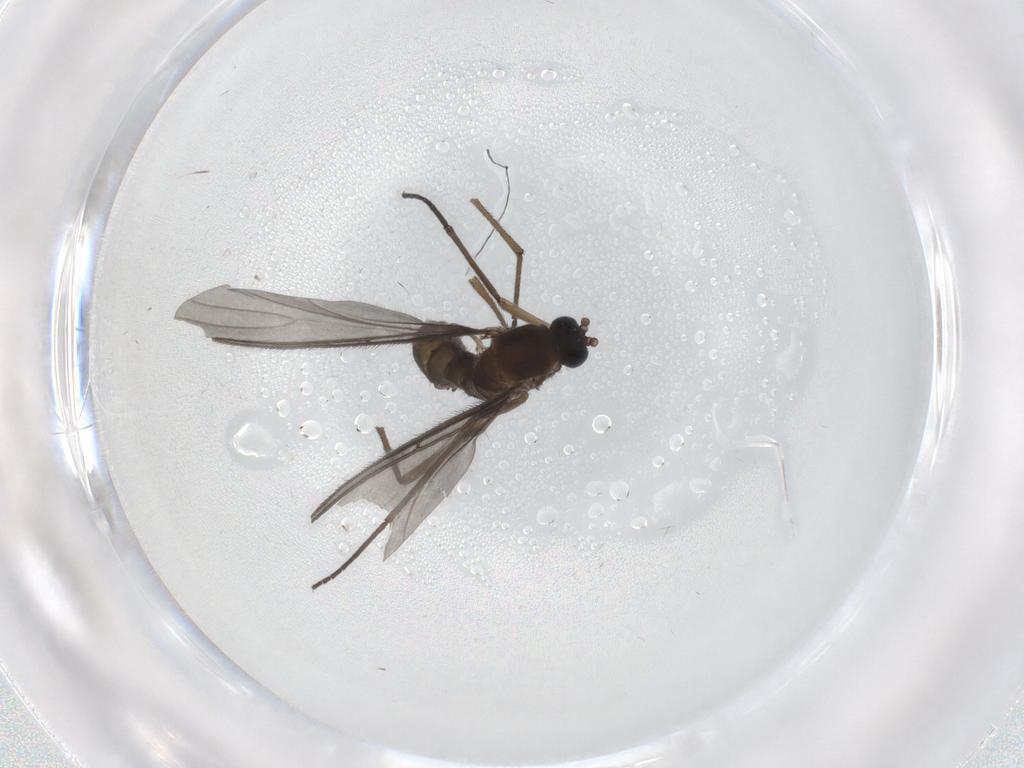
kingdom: Animalia
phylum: Arthropoda
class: Insecta
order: Diptera
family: Sciaridae
